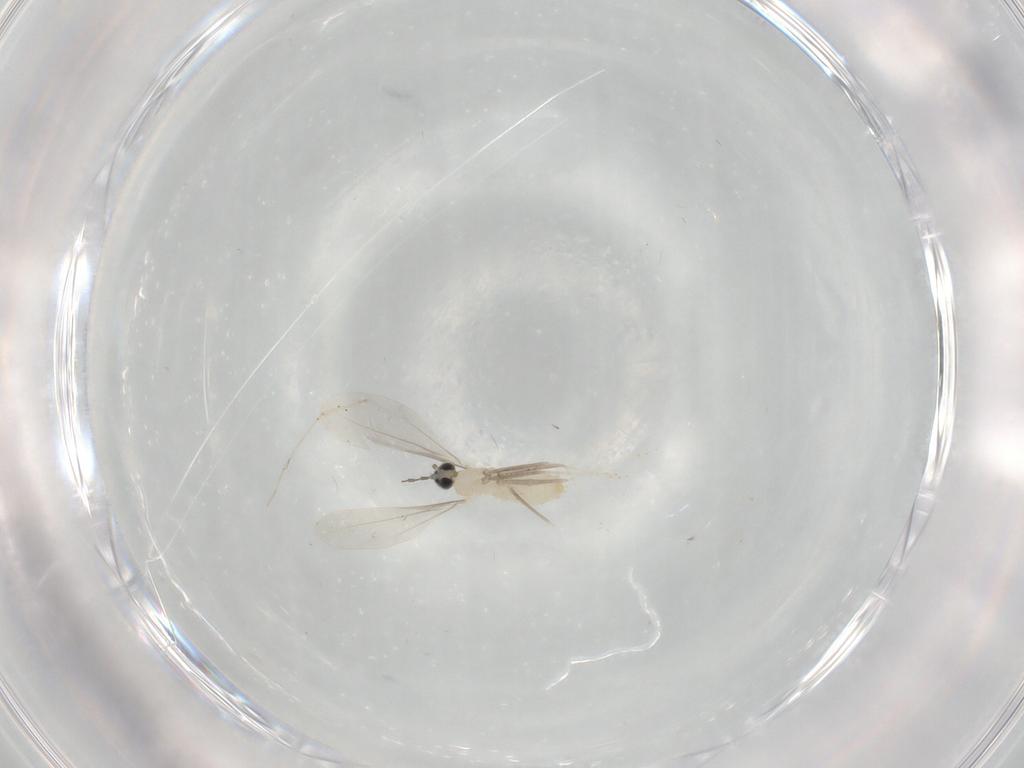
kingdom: Animalia
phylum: Arthropoda
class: Insecta
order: Diptera
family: Cecidomyiidae
